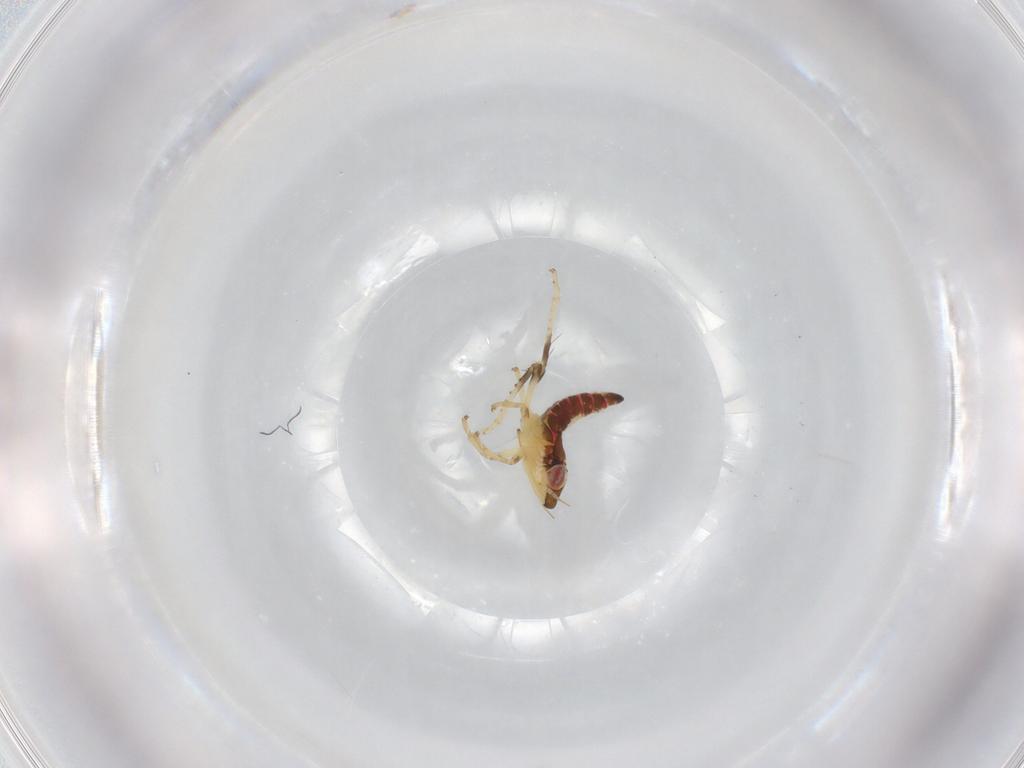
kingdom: Animalia
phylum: Arthropoda
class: Insecta
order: Hemiptera
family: Cicadellidae
